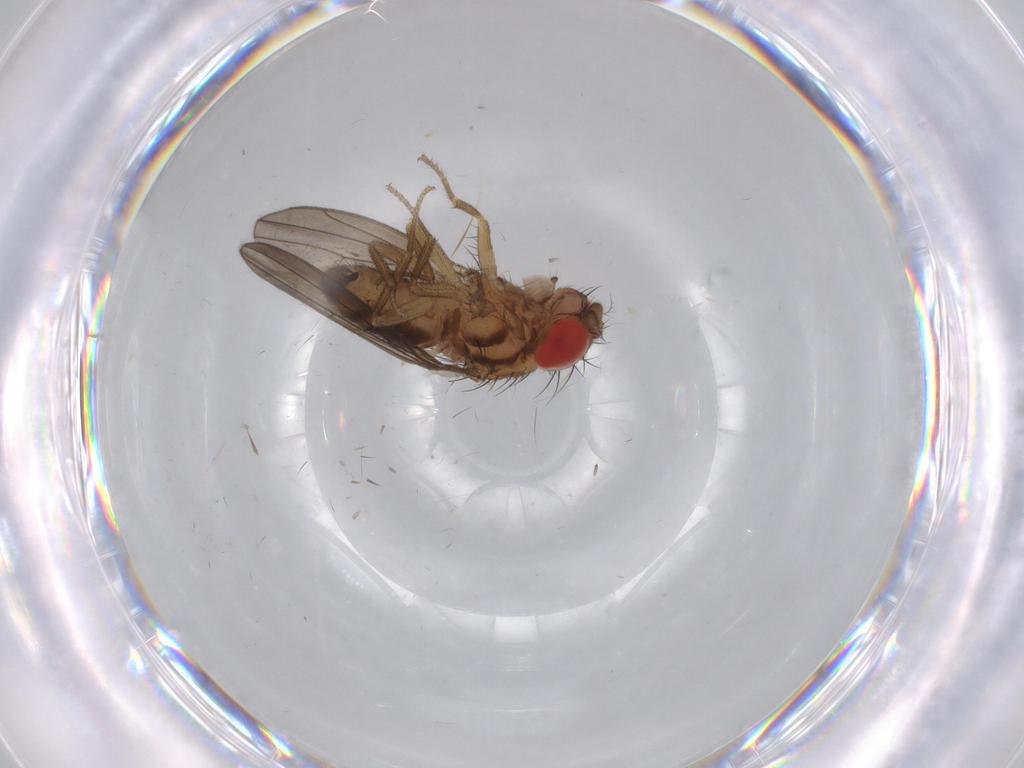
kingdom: Animalia
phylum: Arthropoda
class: Insecta
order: Diptera
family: Drosophilidae
